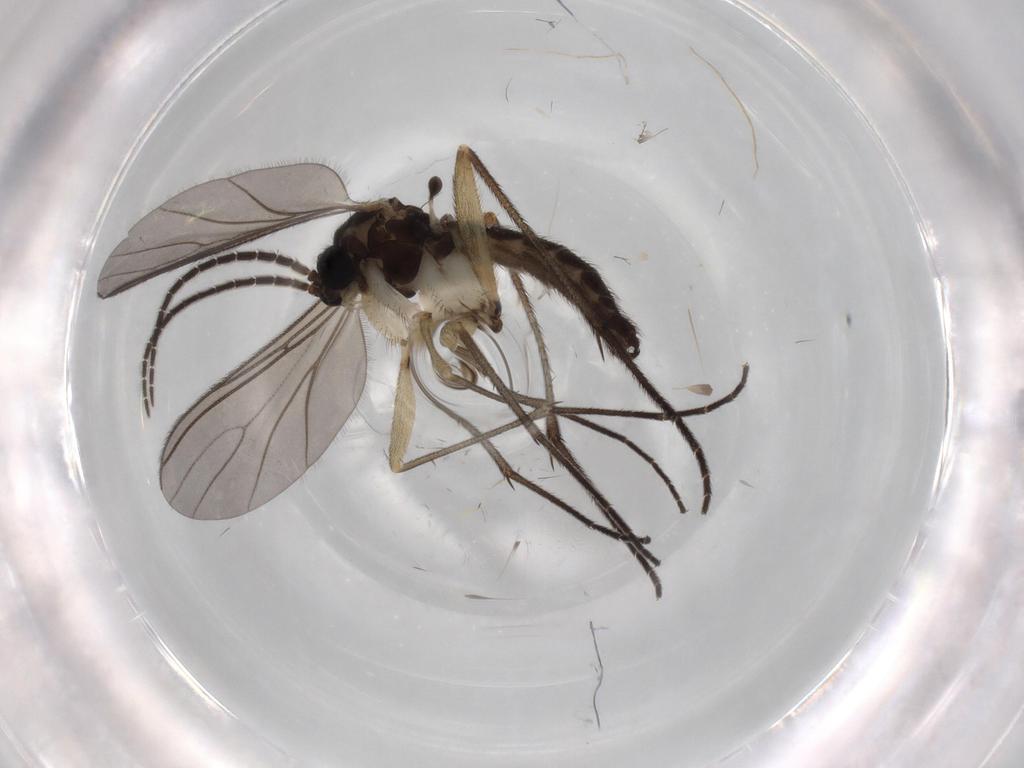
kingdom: Animalia
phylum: Arthropoda
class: Insecta
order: Diptera
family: Sciaridae
